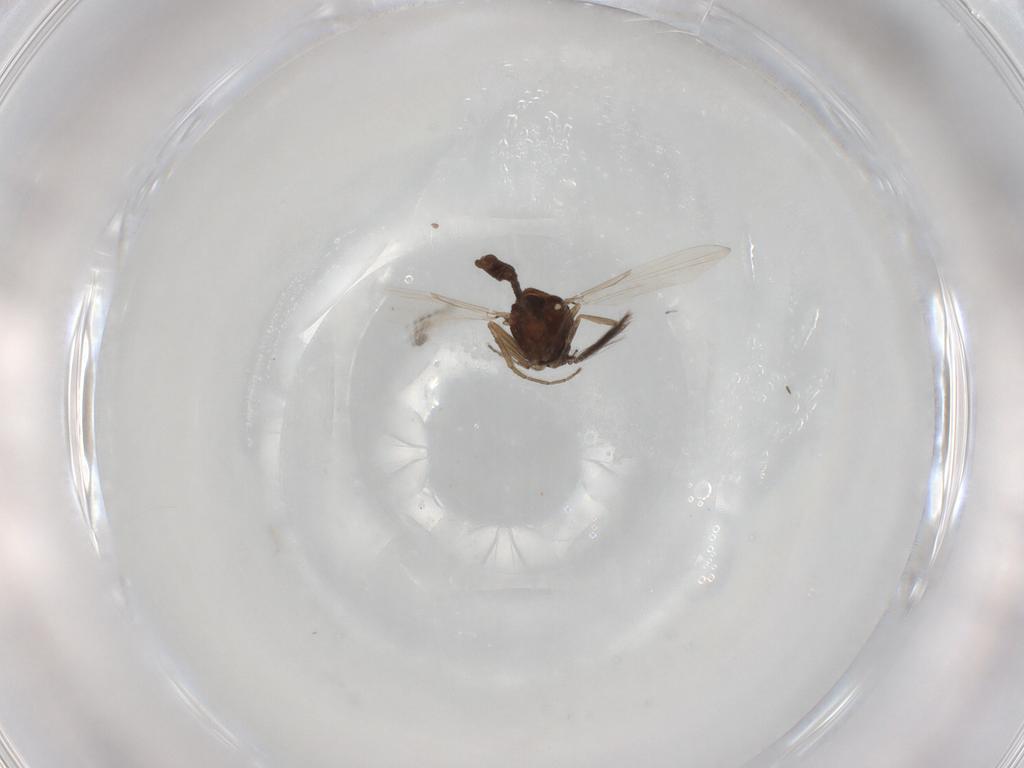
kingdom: Animalia
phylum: Arthropoda
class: Insecta
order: Diptera
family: Ceratopogonidae
